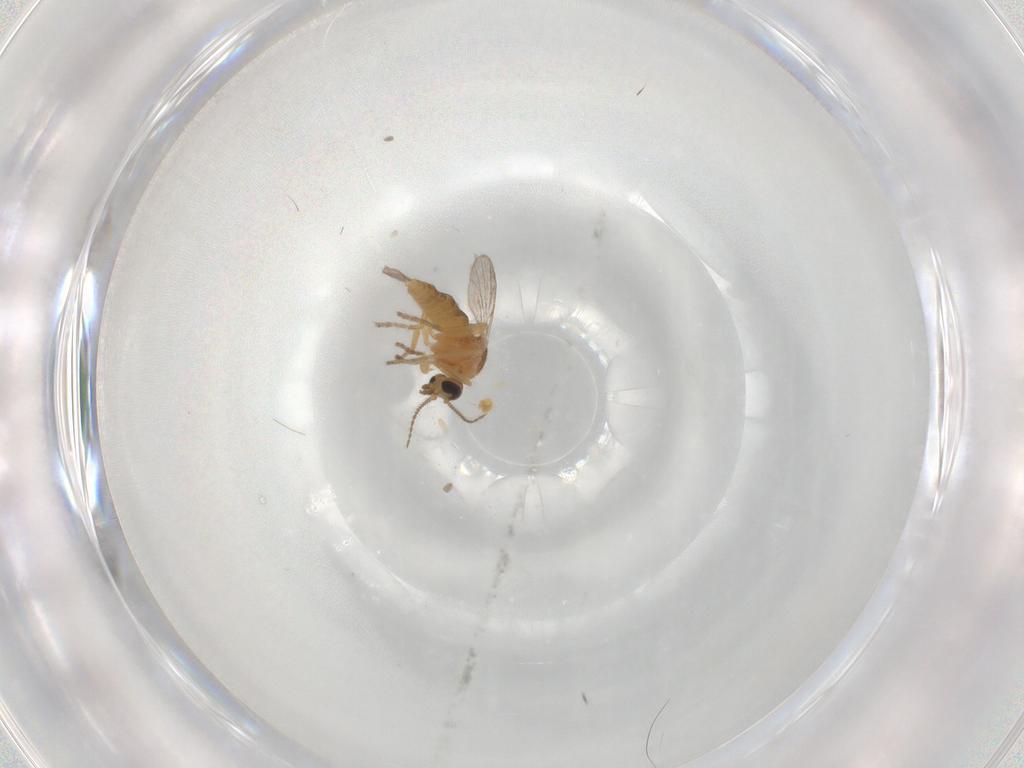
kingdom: Animalia
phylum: Arthropoda
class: Insecta
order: Diptera
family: Ceratopogonidae
